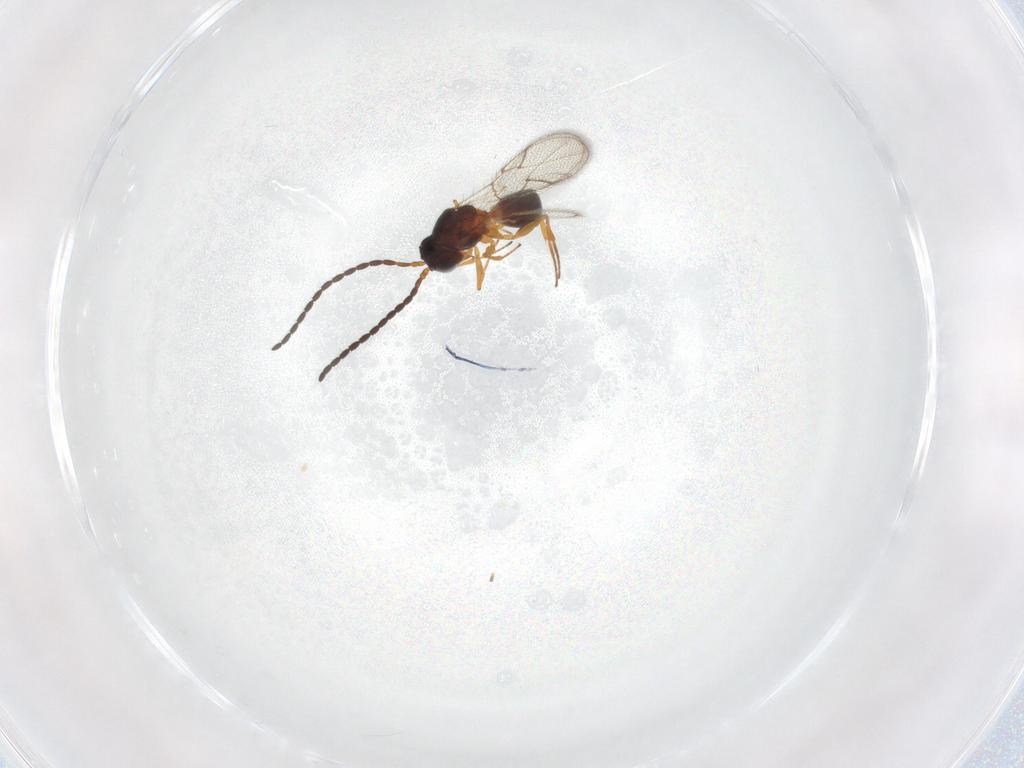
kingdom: Animalia
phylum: Arthropoda
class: Insecta
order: Hymenoptera
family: Figitidae
